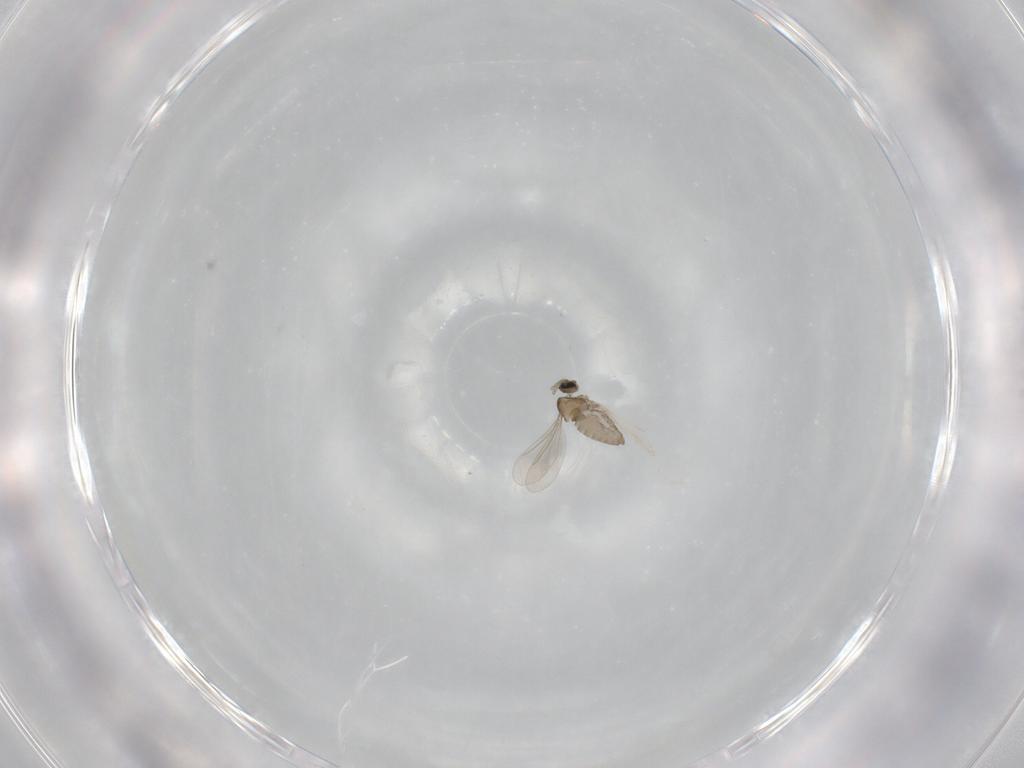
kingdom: Animalia
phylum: Arthropoda
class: Insecta
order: Diptera
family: Cecidomyiidae
